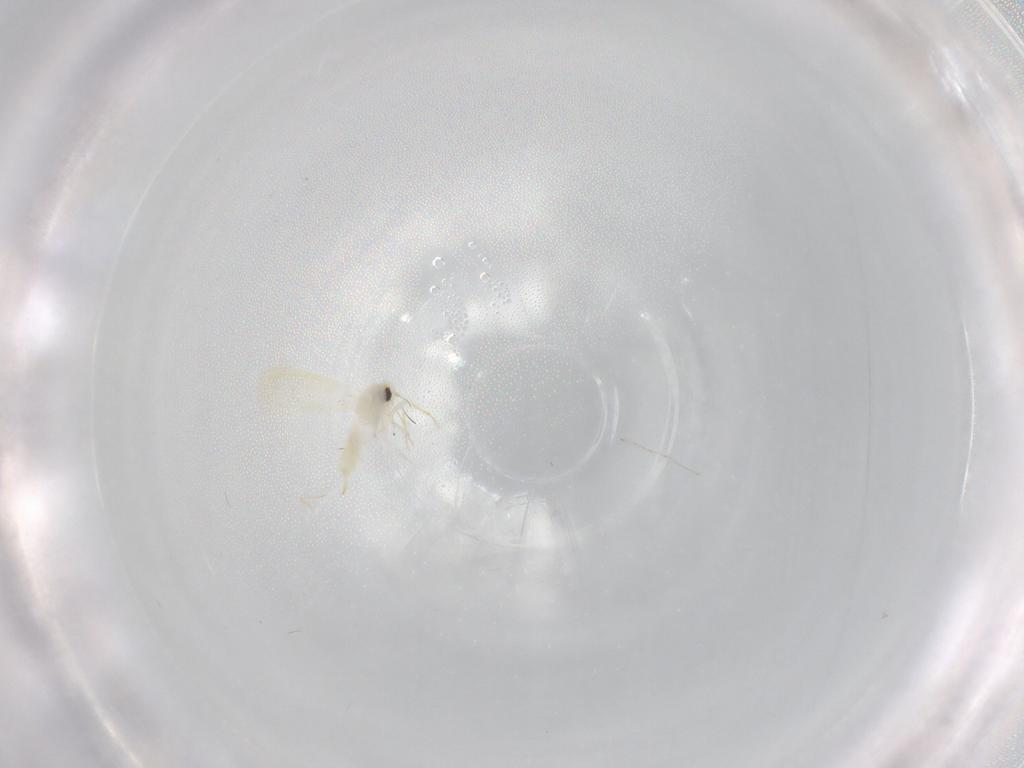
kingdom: Animalia
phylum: Arthropoda
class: Insecta
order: Hemiptera
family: Aleyrodidae
